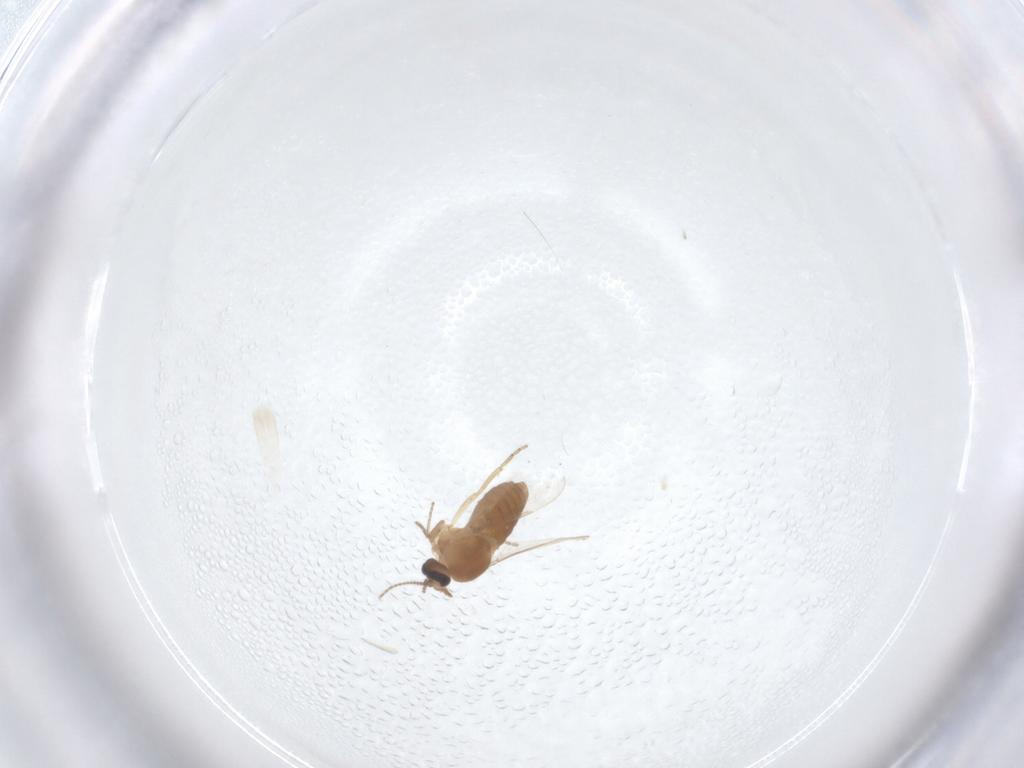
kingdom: Animalia
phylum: Arthropoda
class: Insecta
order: Diptera
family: Ceratopogonidae
